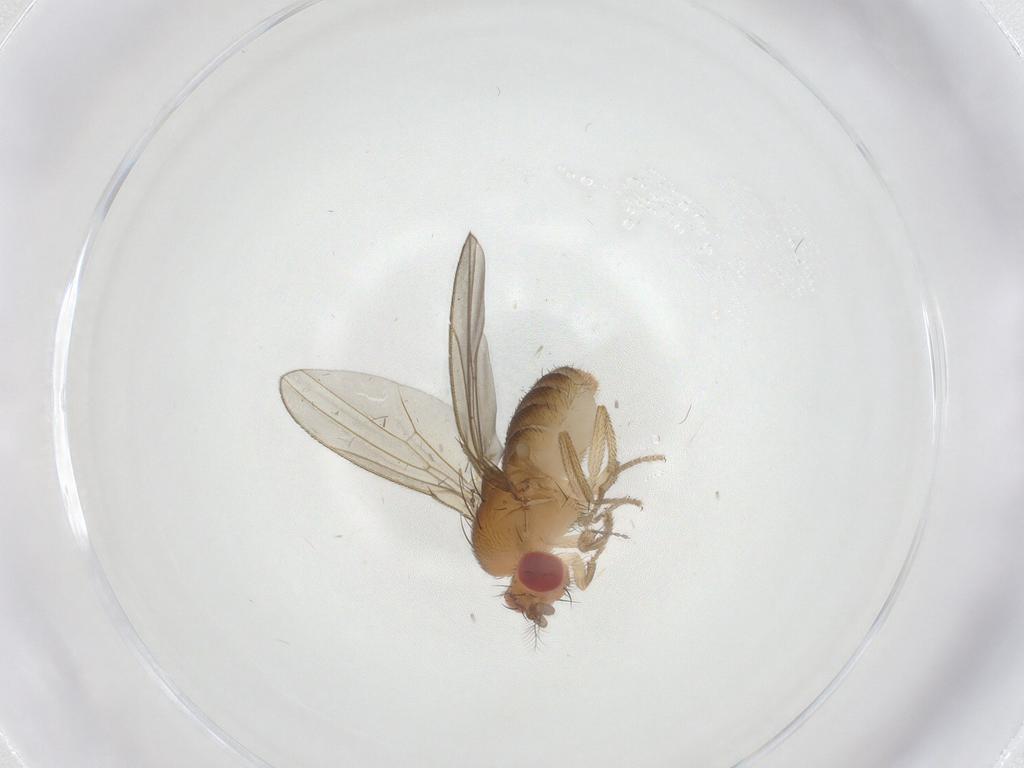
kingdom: Animalia
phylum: Arthropoda
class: Insecta
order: Diptera
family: Drosophilidae
